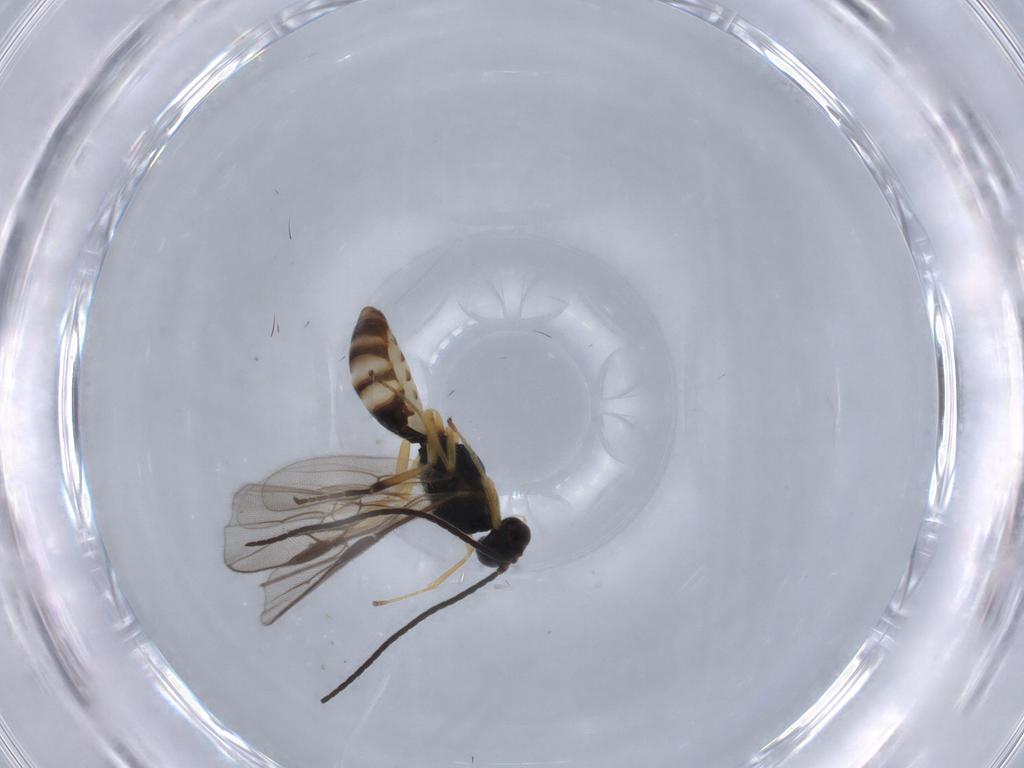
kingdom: Animalia
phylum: Arthropoda
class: Insecta
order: Hymenoptera
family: Braconidae
